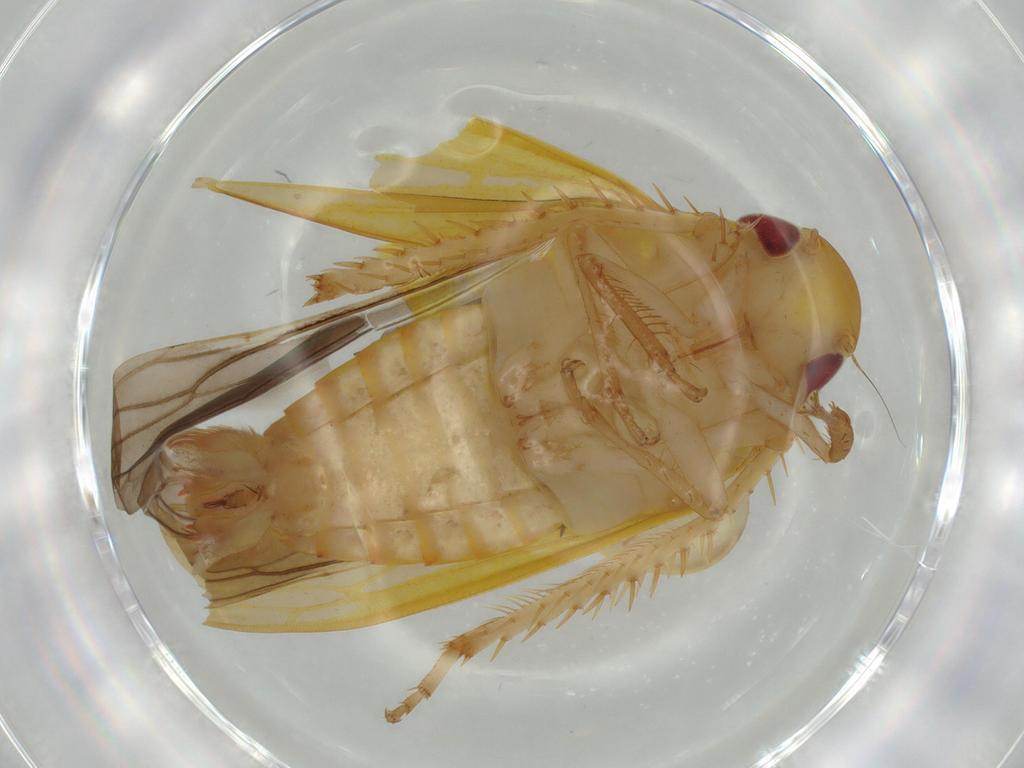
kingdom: Animalia
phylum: Arthropoda
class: Insecta
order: Hemiptera
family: Cicadellidae
